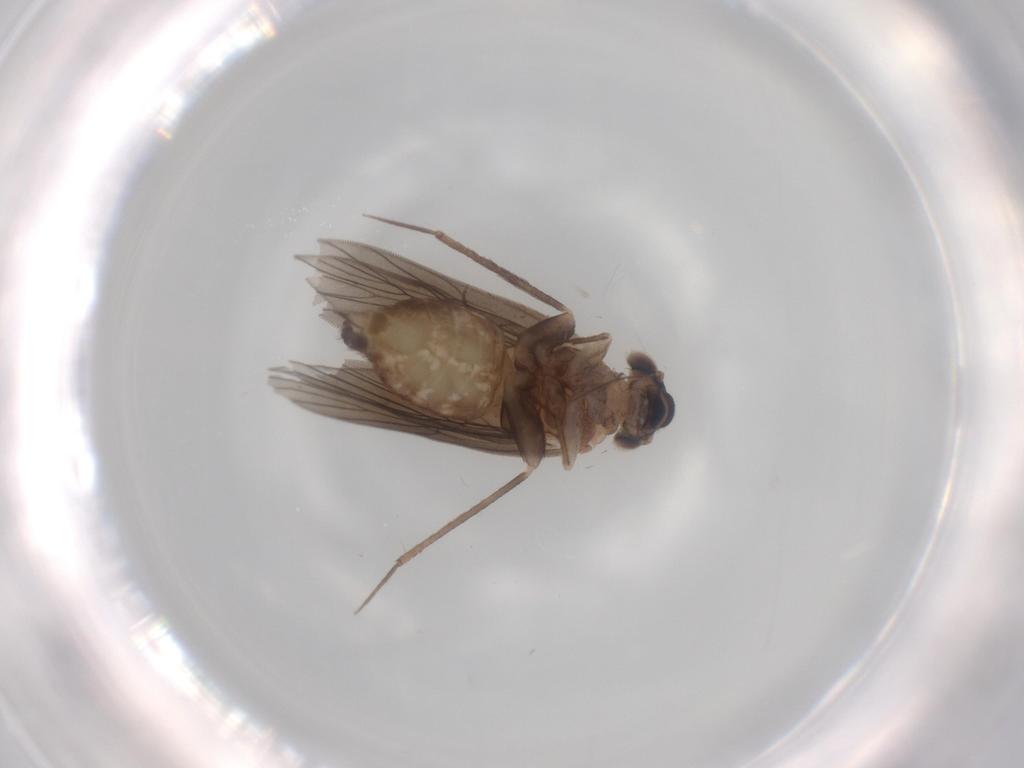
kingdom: Animalia
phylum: Arthropoda
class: Insecta
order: Psocodea
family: Lepidopsocidae
